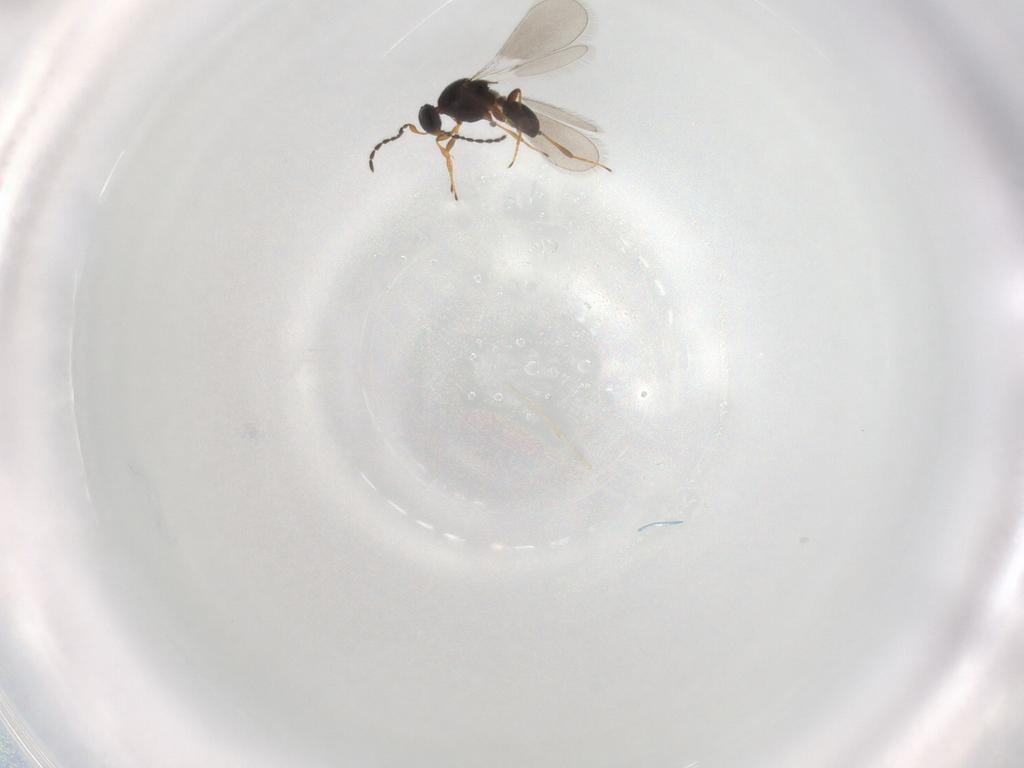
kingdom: Animalia
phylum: Arthropoda
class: Insecta
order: Hymenoptera
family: Platygastridae
